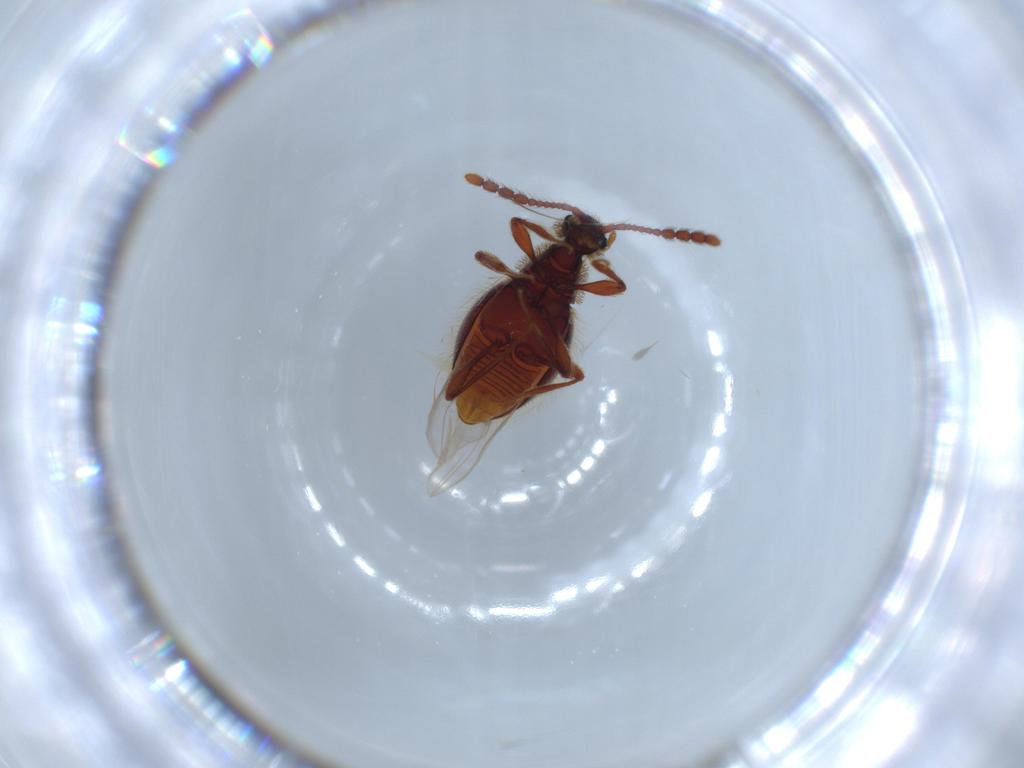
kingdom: Animalia
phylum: Arthropoda
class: Insecta
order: Coleoptera
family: Staphylinidae
